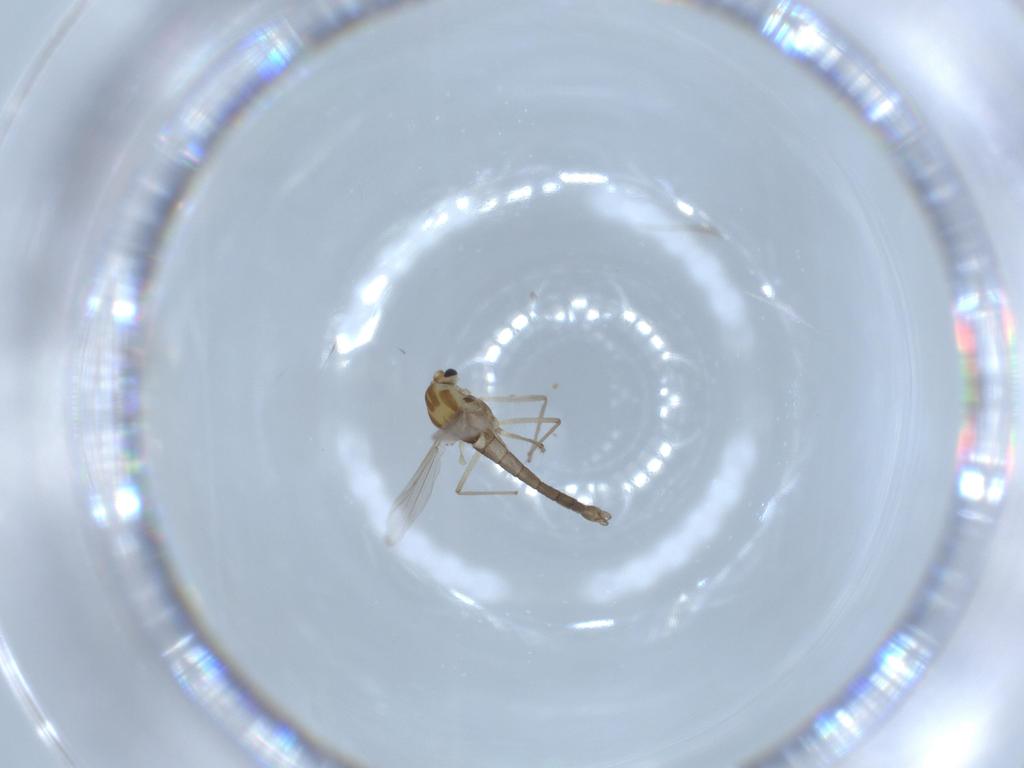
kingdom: Animalia
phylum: Arthropoda
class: Insecta
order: Diptera
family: Chironomidae
